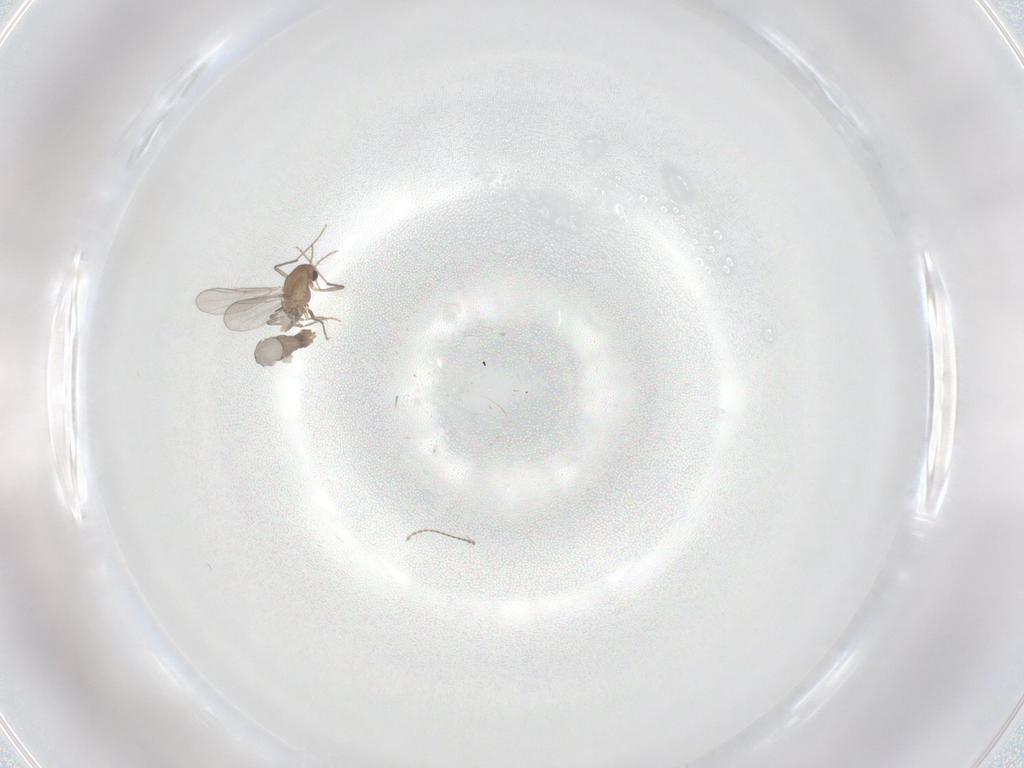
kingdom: Animalia
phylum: Arthropoda
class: Insecta
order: Diptera
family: Chironomidae
